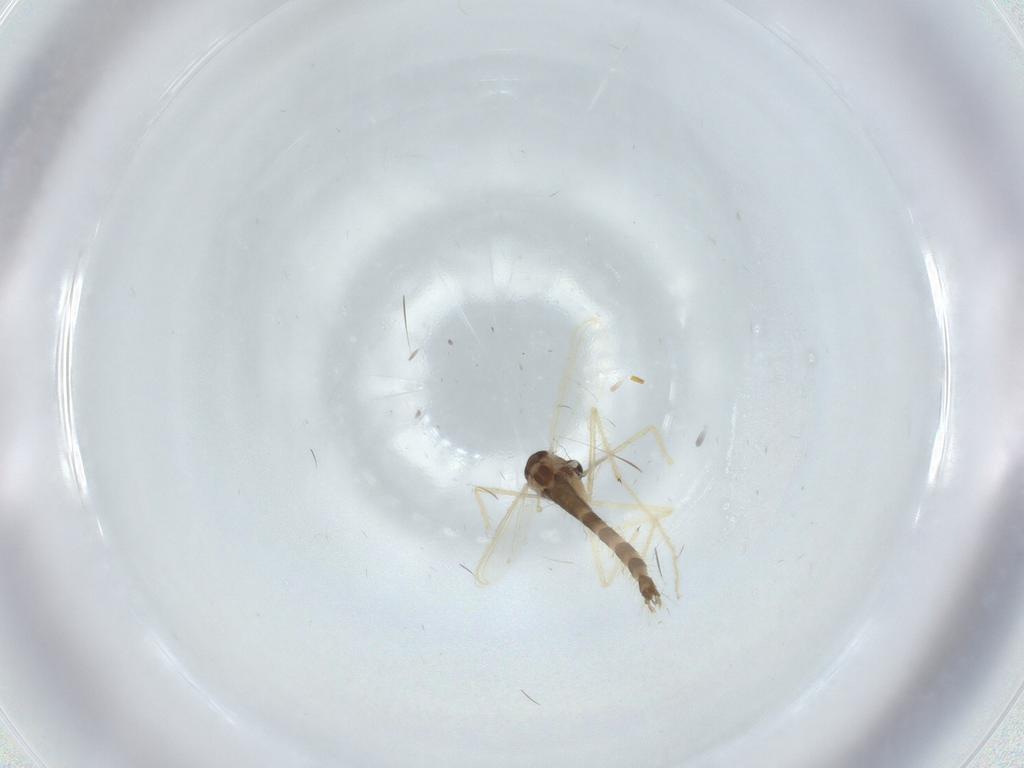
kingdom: Animalia
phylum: Arthropoda
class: Insecta
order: Diptera
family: Chironomidae
